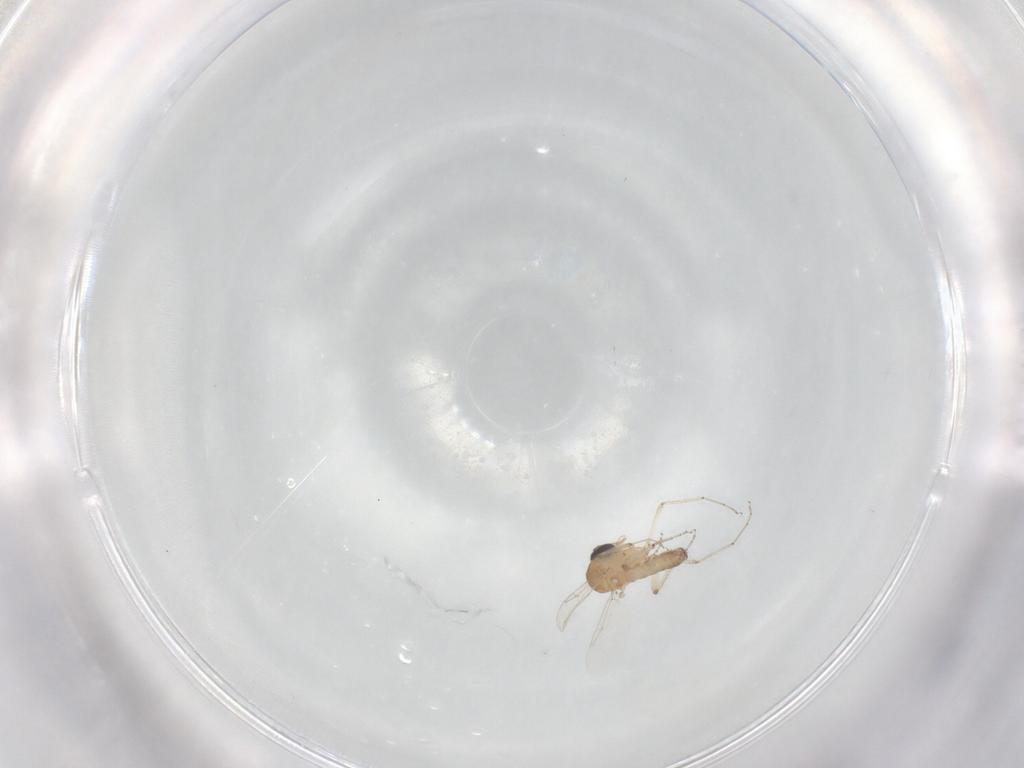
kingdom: Animalia
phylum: Arthropoda
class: Insecta
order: Diptera
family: Ceratopogonidae
